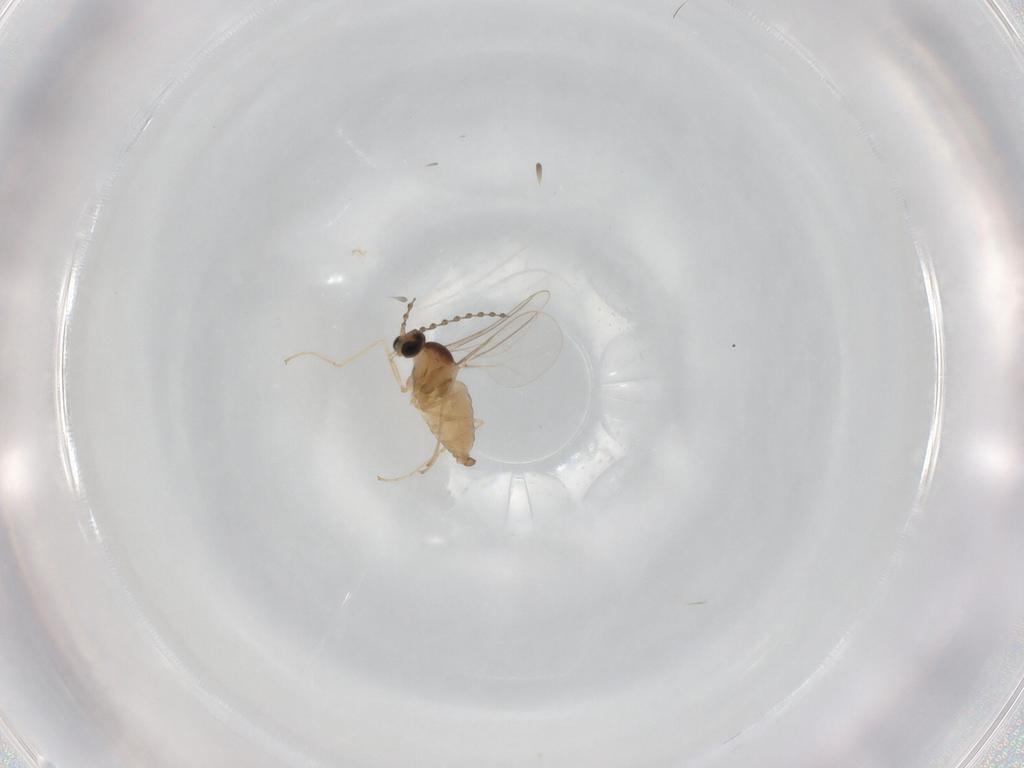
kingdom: Animalia
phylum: Arthropoda
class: Insecta
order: Diptera
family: Cecidomyiidae
